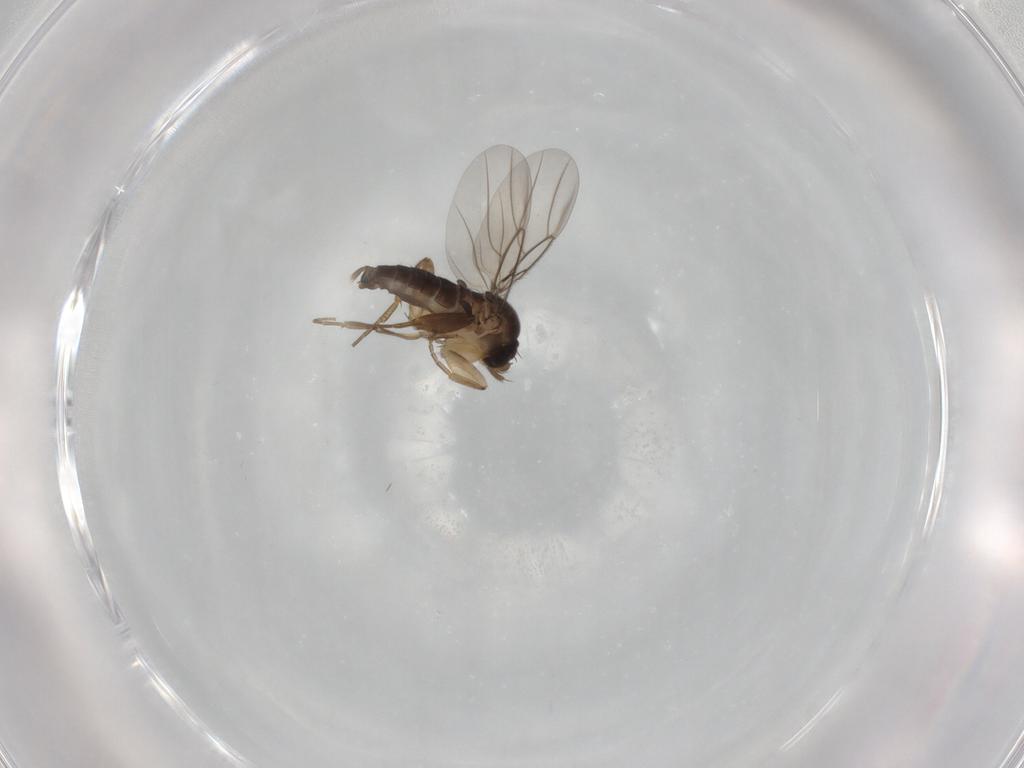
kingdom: Animalia
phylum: Arthropoda
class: Insecta
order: Diptera
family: Phoridae
